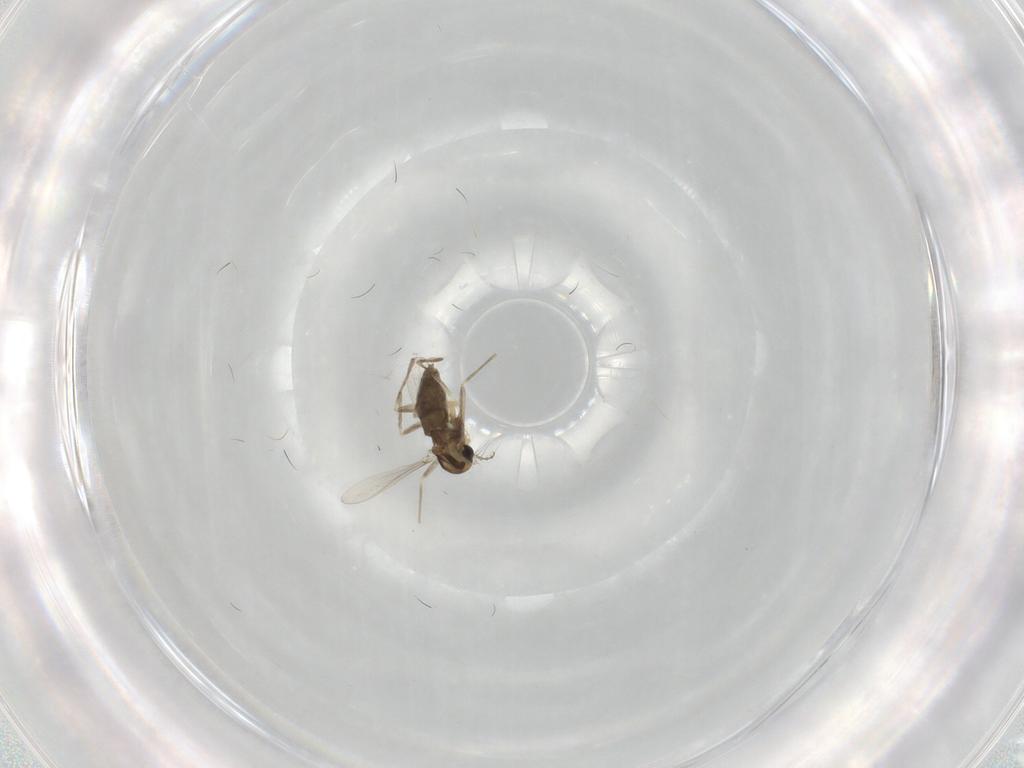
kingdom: Animalia
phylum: Arthropoda
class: Insecta
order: Diptera
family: Chironomidae
